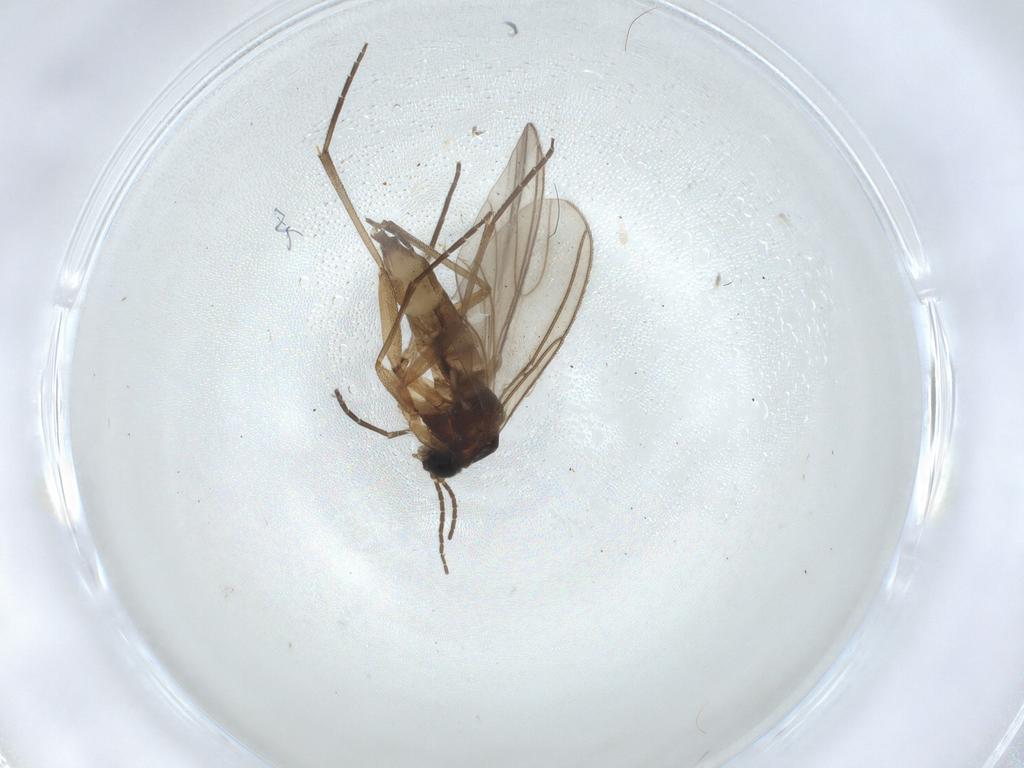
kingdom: Animalia
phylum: Arthropoda
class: Insecta
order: Diptera
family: Sciaridae
